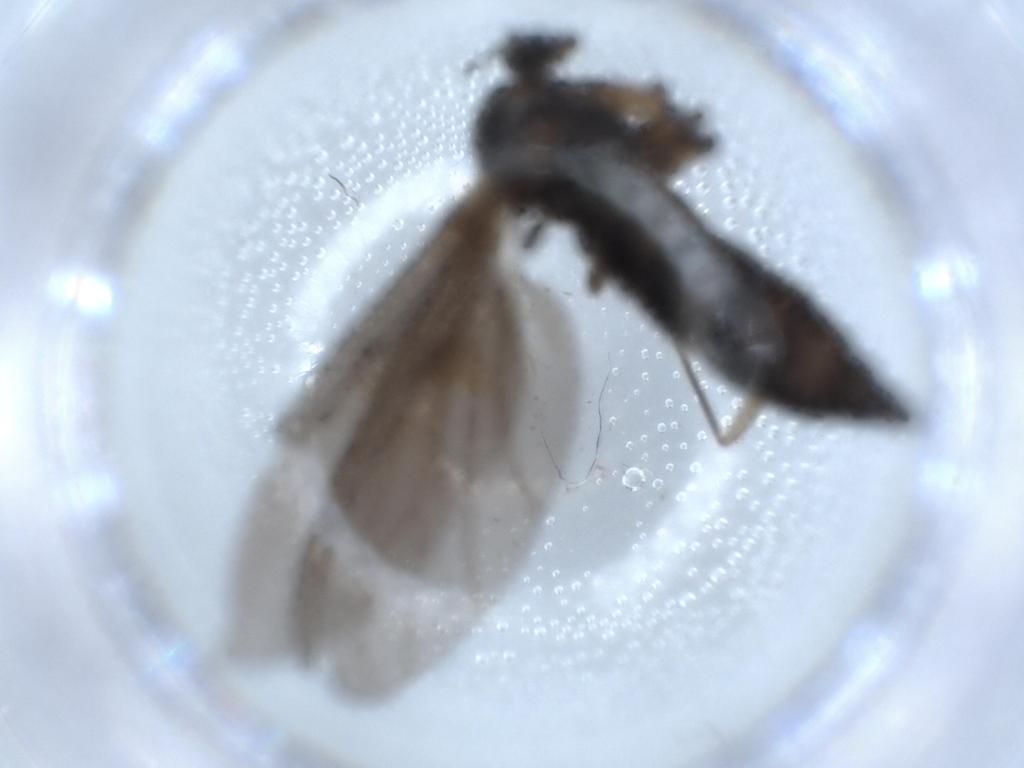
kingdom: Animalia
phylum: Arthropoda
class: Insecta
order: Diptera
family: Sciaridae
